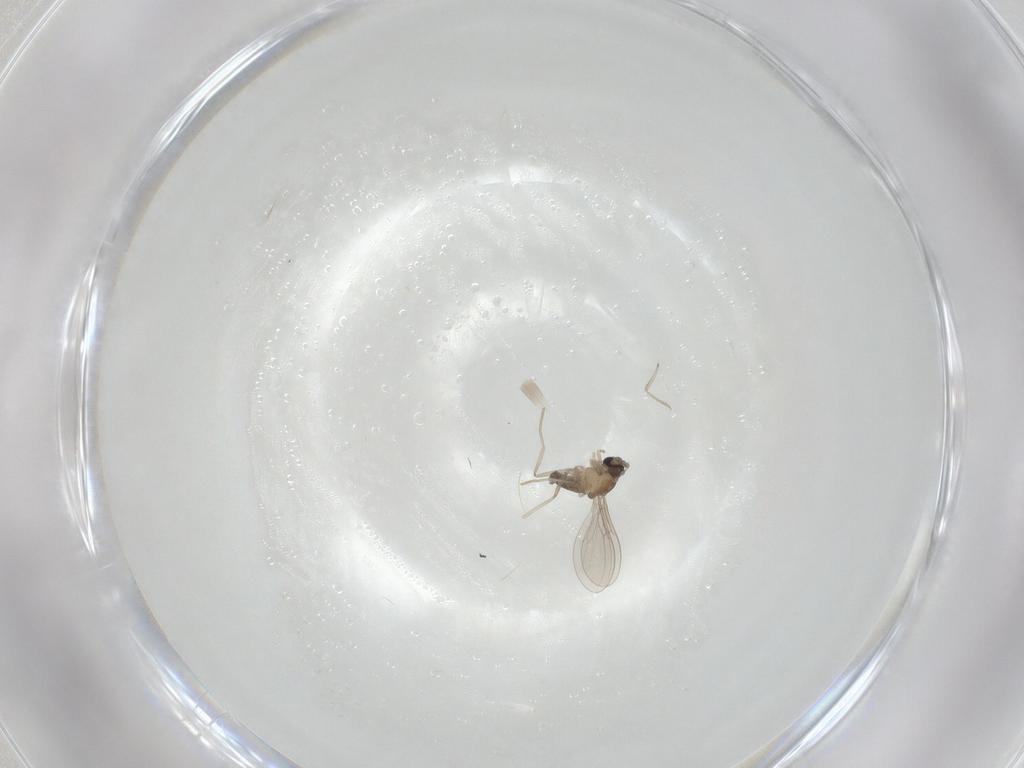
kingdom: Animalia
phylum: Arthropoda
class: Insecta
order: Diptera
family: Cecidomyiidae
